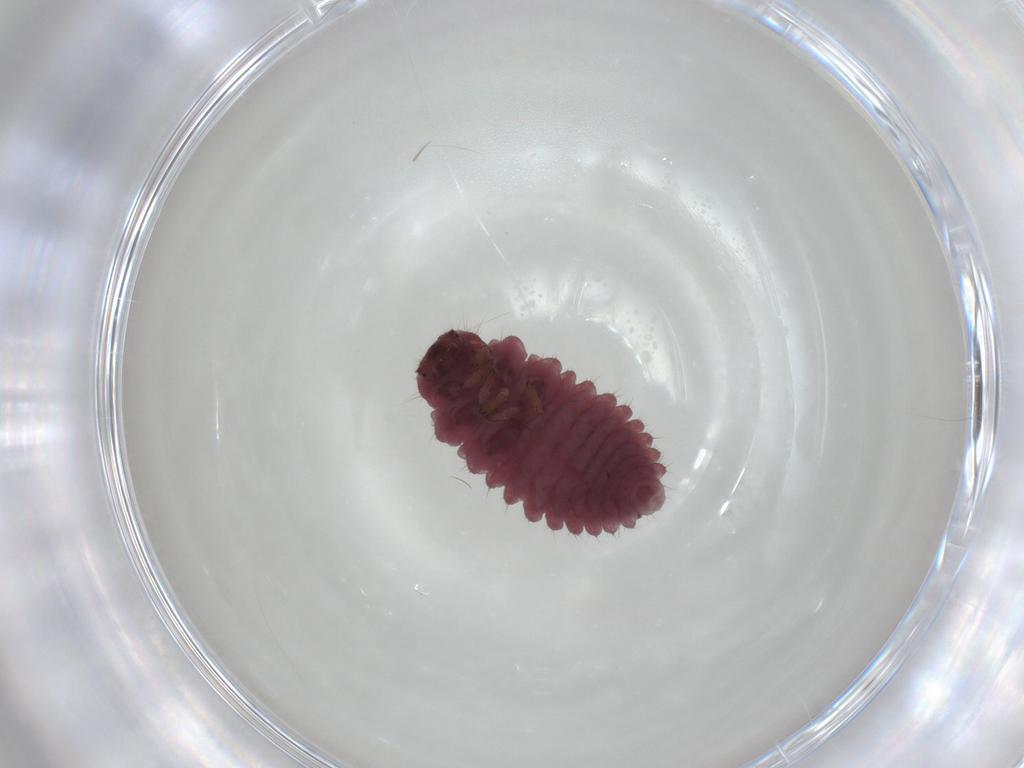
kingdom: Animalia
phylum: Arthropoda
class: Insecta
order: Coleoptera
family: Coccinellidae
